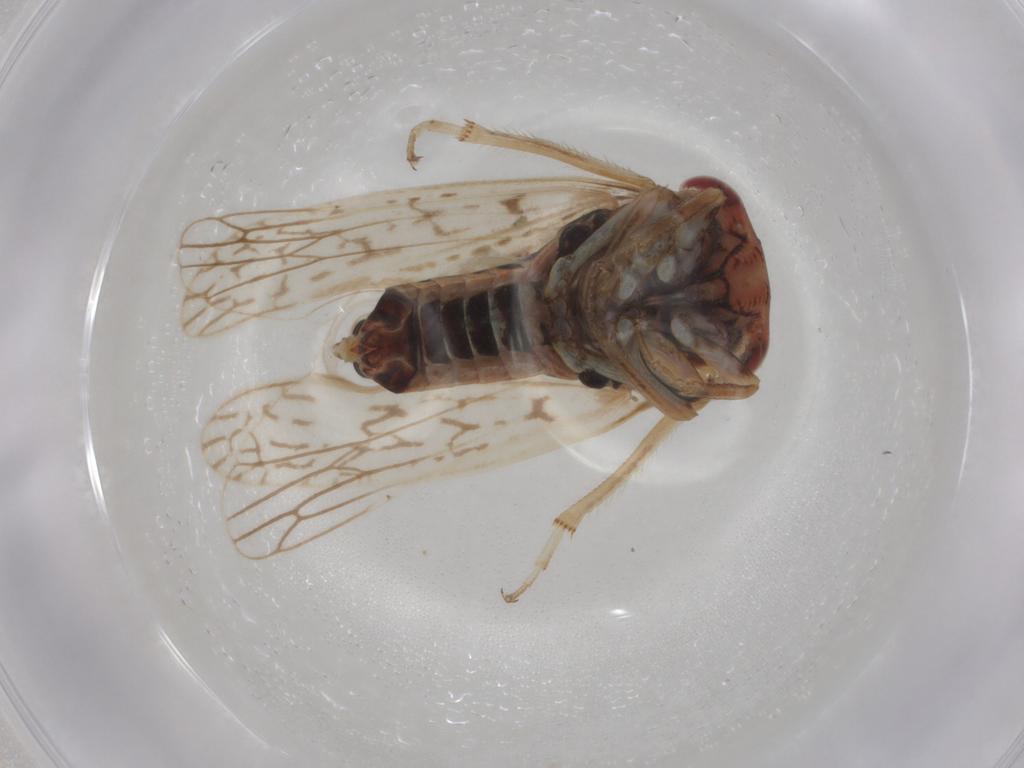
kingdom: Animalia
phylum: Arthropoda
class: Insecta
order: Hemiptera
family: Cicadellidae
